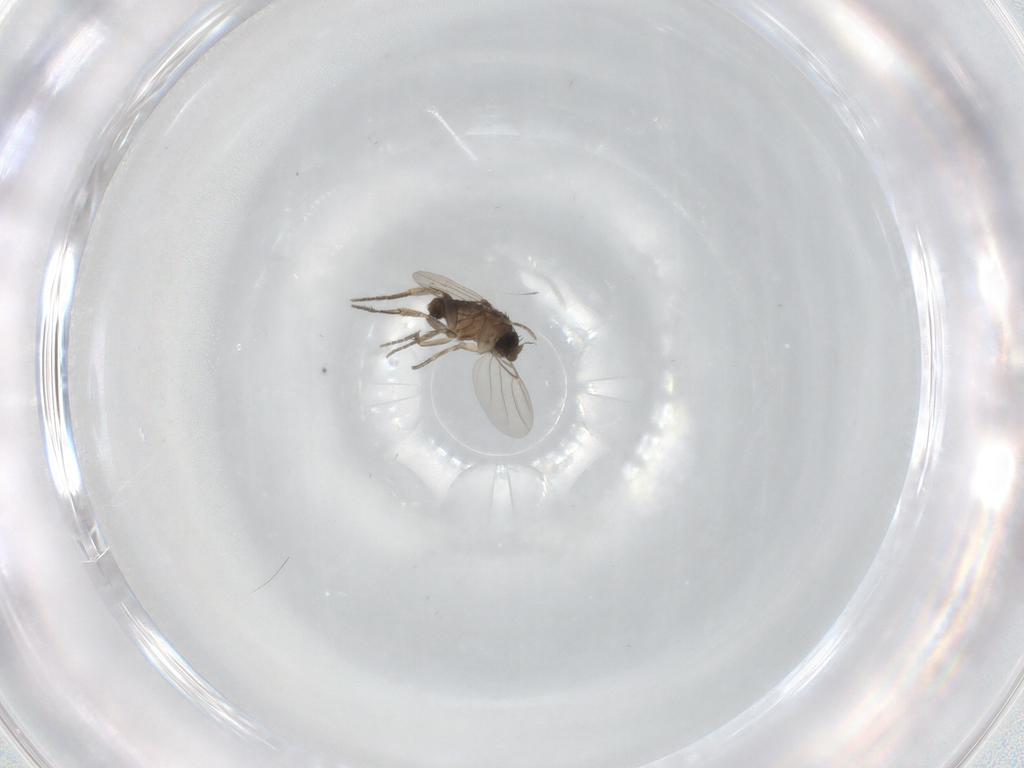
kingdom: Animalia
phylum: Arthropoda
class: Insecta
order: Diptera
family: Phoridae
